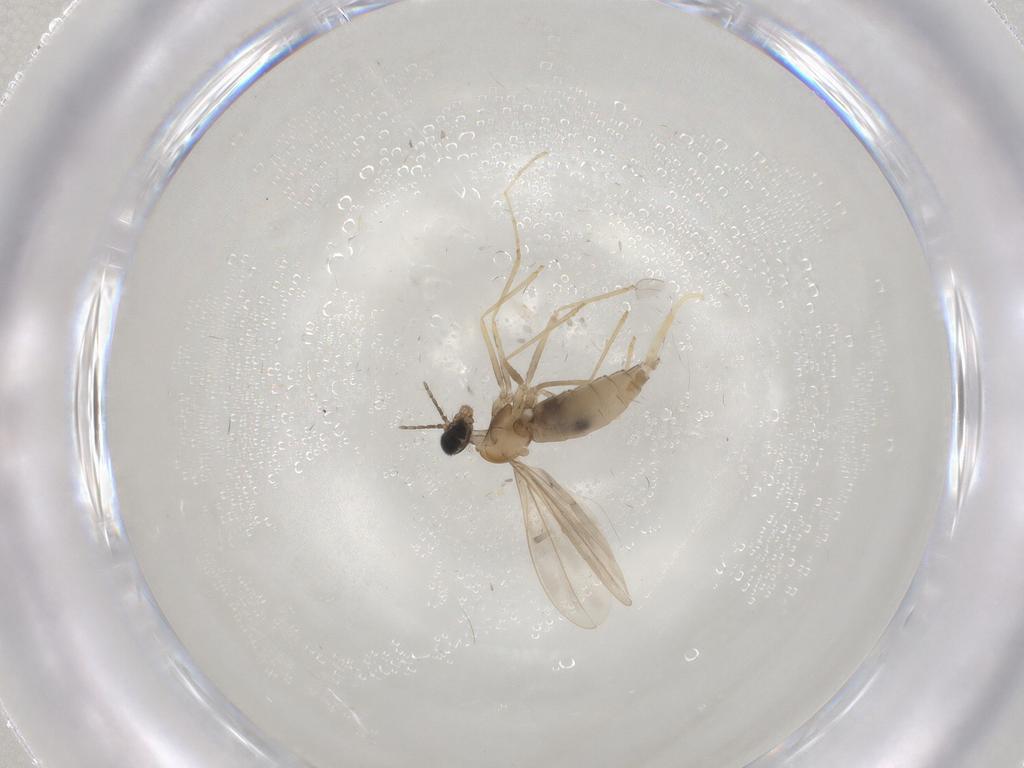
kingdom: Animalia
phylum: Arthropoda
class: Insecta
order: Diptera
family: Cecidomyiidae
